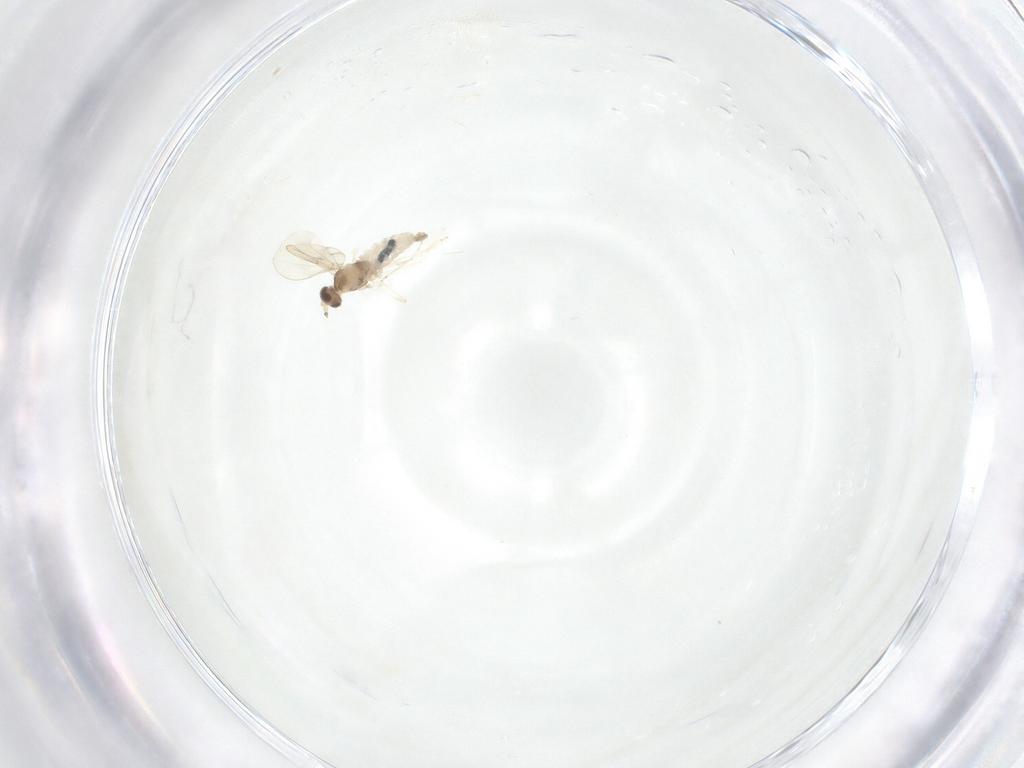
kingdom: Animalia
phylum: Arthropoda
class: Insecta
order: Diptera
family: Cecidomyiidae
